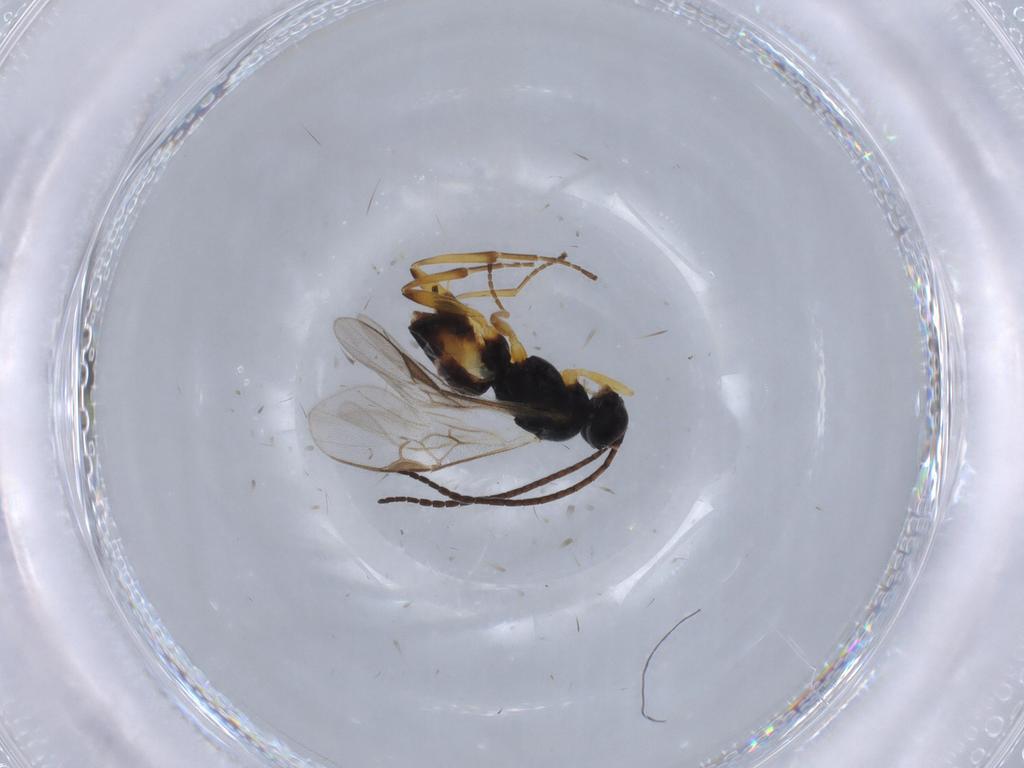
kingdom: Animalia
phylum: Arthropoda
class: Insecta
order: Hymenoptera
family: Braconidae
